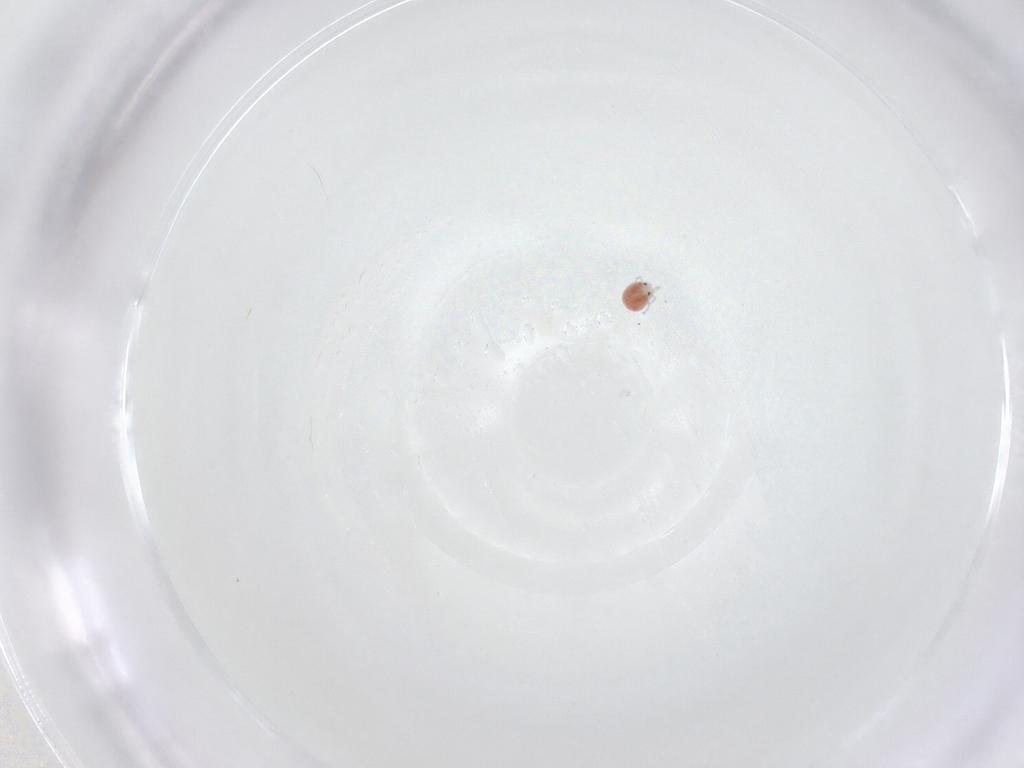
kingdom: Animalia
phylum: Arthropoda
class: Arachnida
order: Trombidiformes
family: Pionidae
